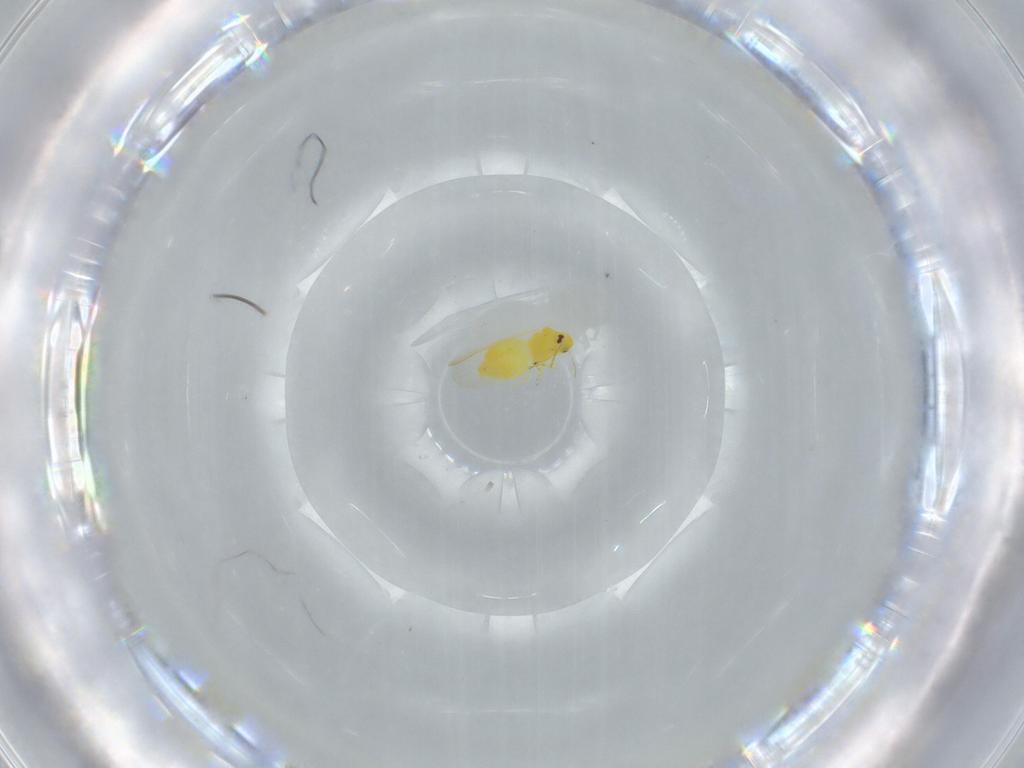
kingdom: Animalia
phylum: Arthropoda
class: Insecta
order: Hemiptera
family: Aleyrodidae
